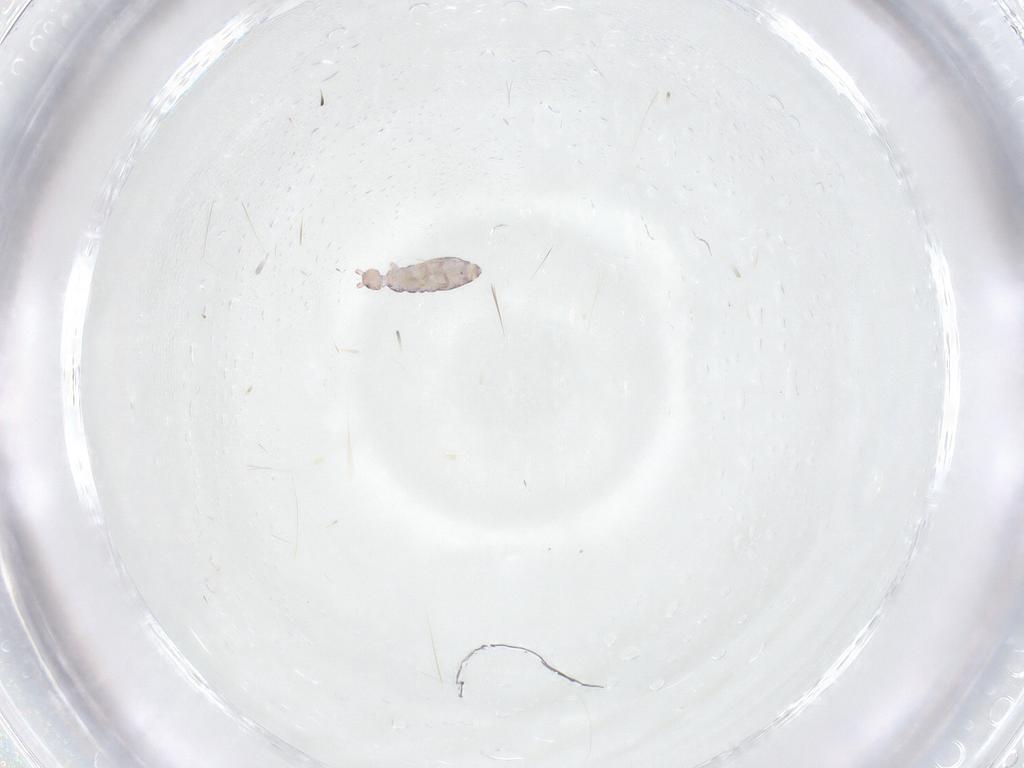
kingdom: Animalia
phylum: Arthropoda
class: Collembola
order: Entomobryomorpha
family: Entomobryidae
